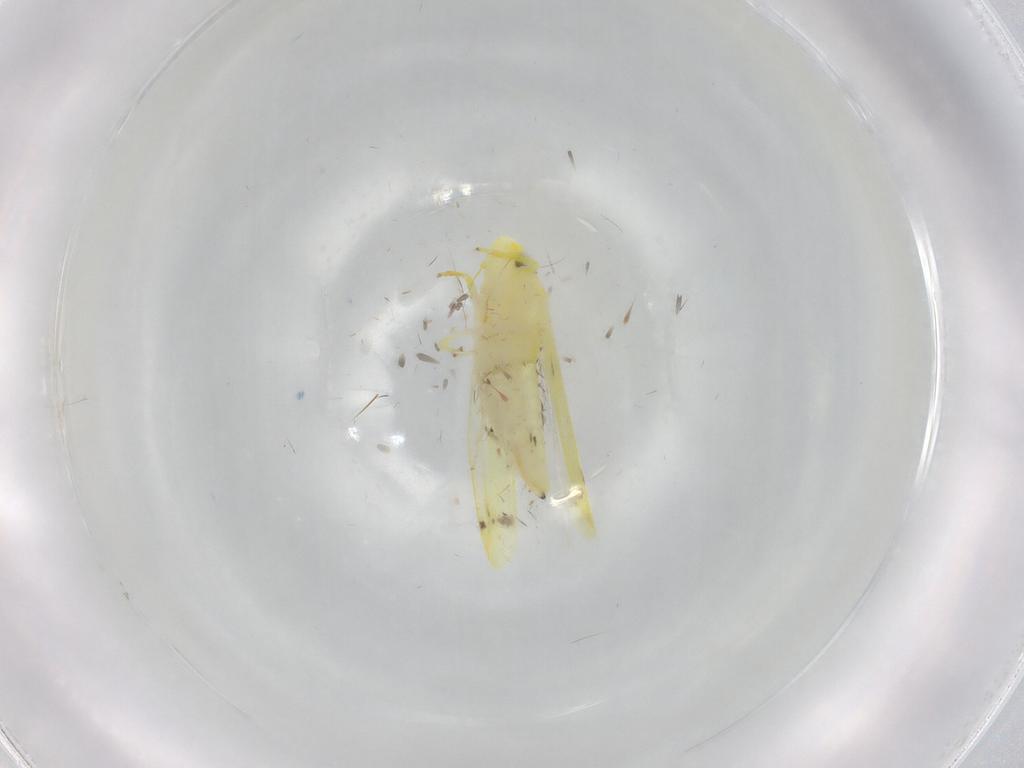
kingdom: Animalia
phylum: Arthropoda
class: Insecta
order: Hemiptera
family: Cicadellidae
